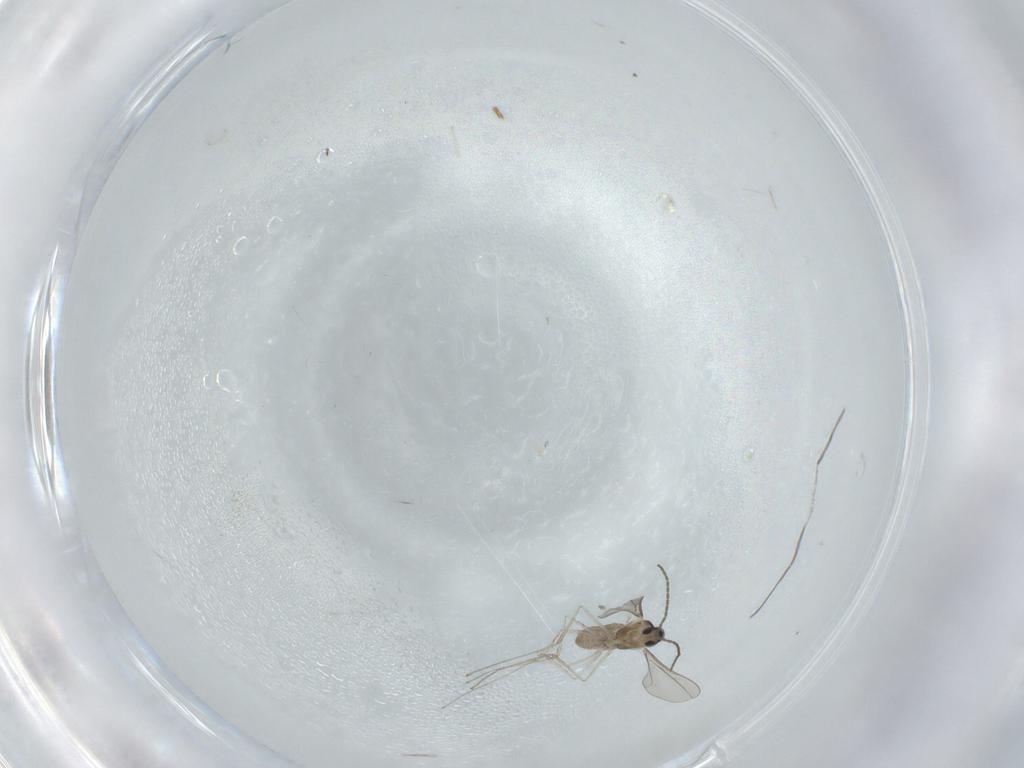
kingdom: Animalia
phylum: Arthropoda
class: Insecta
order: Diptera
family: Cecidomyiidae
